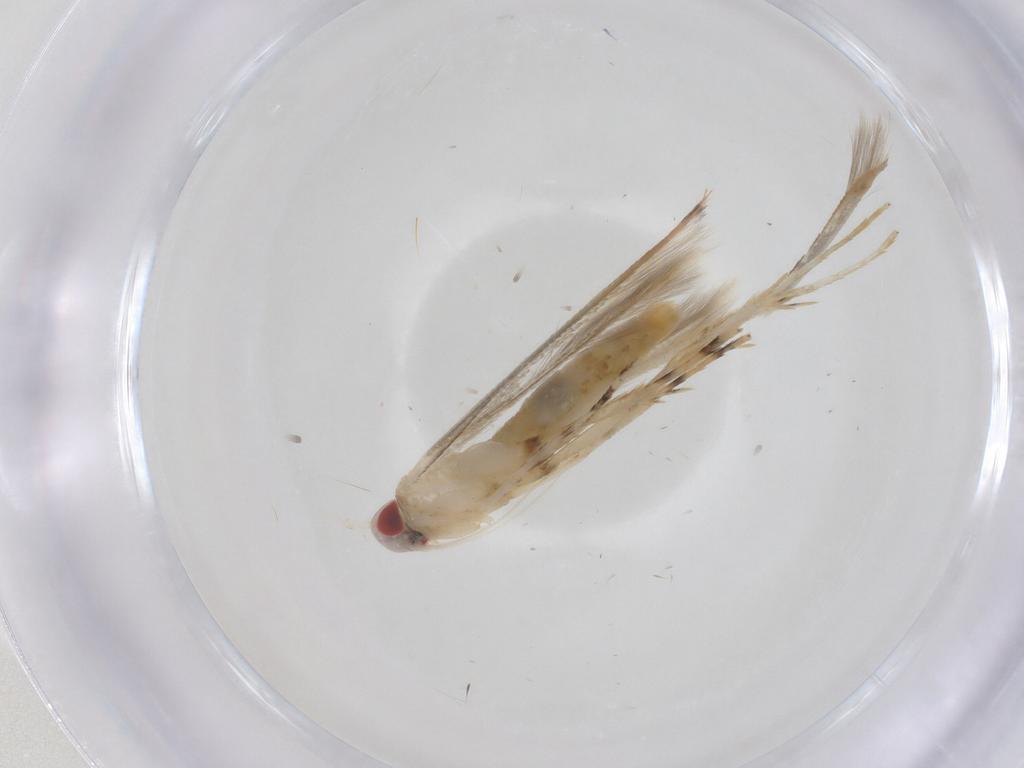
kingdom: Animalia
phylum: Arthropoda
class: Insecta
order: Lepidoptera
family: Cosmopterigidae
